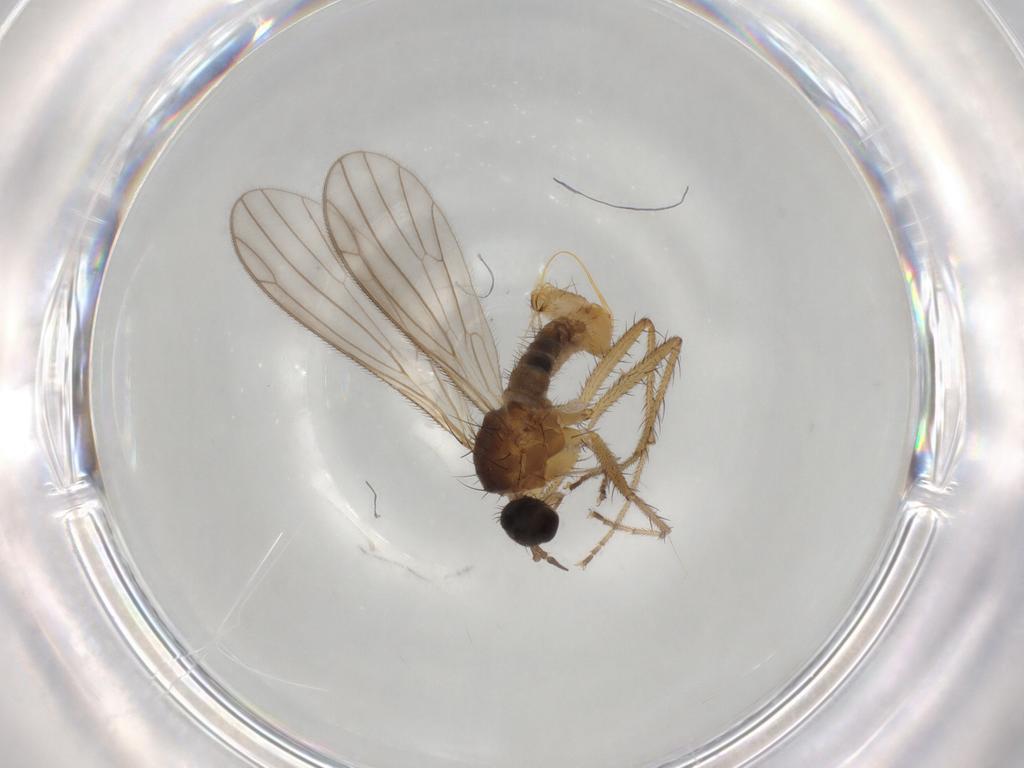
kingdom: Animalia
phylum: Arthropoda
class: Insecta
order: Diptera
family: Empididae
